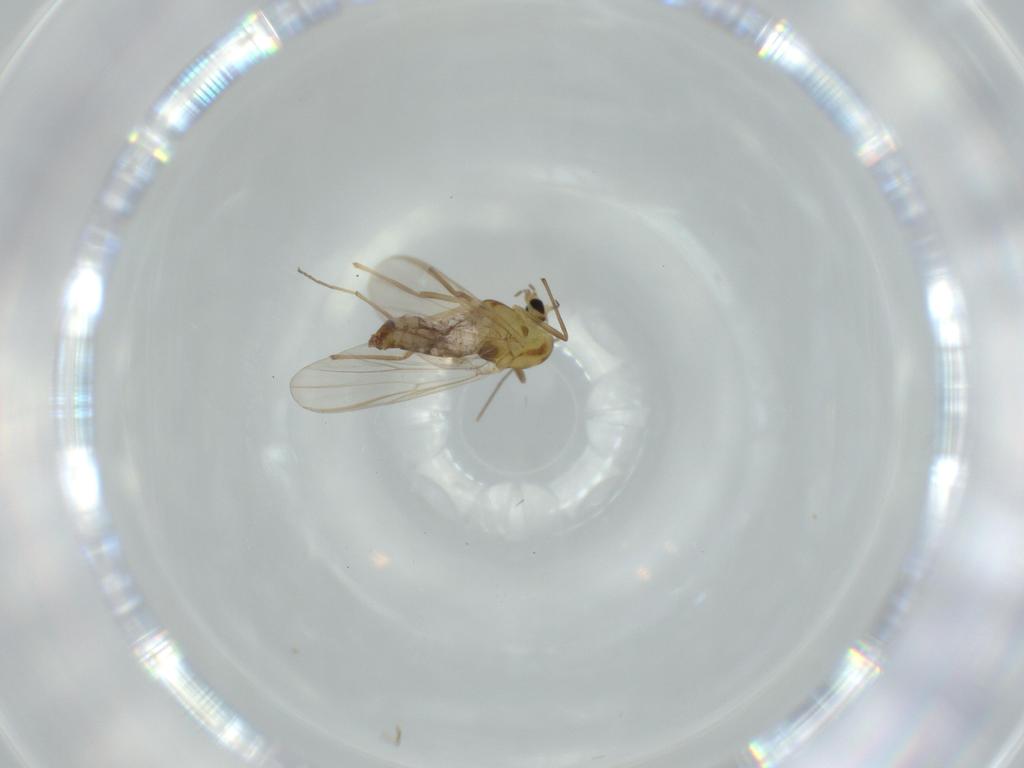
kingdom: Animalia
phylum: Arthropoda
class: Insecta
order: Diptera
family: Chironomidae
